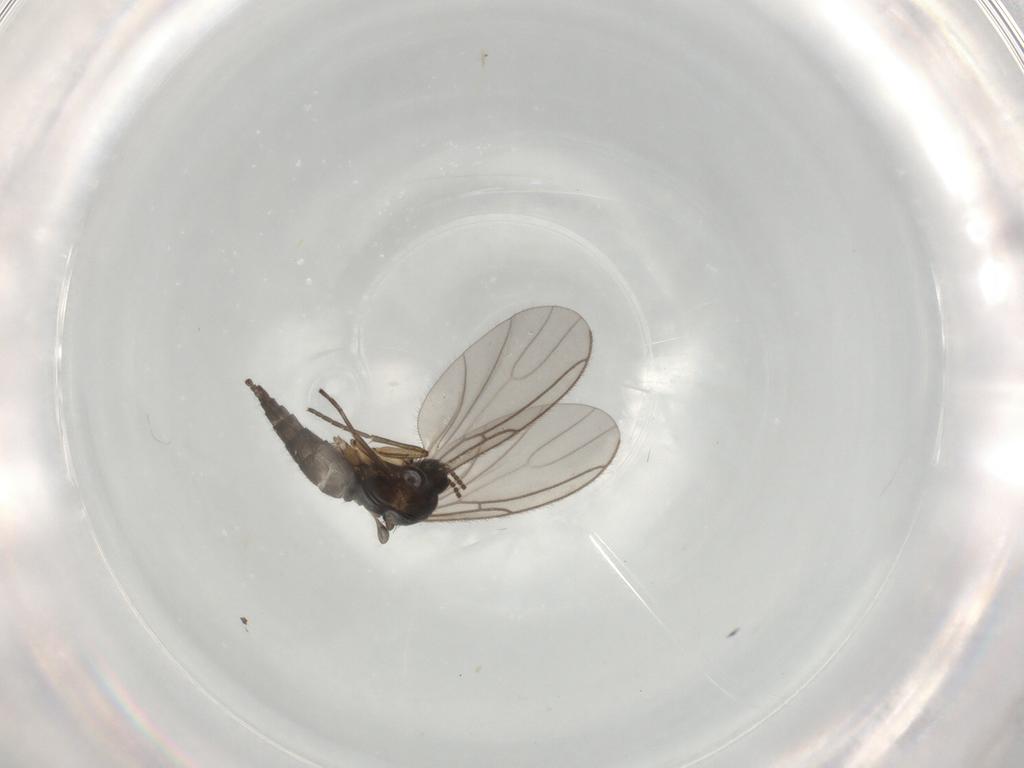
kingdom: Animalia
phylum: Arthropoda
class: Insecta
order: Diptera
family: Sciaridae
